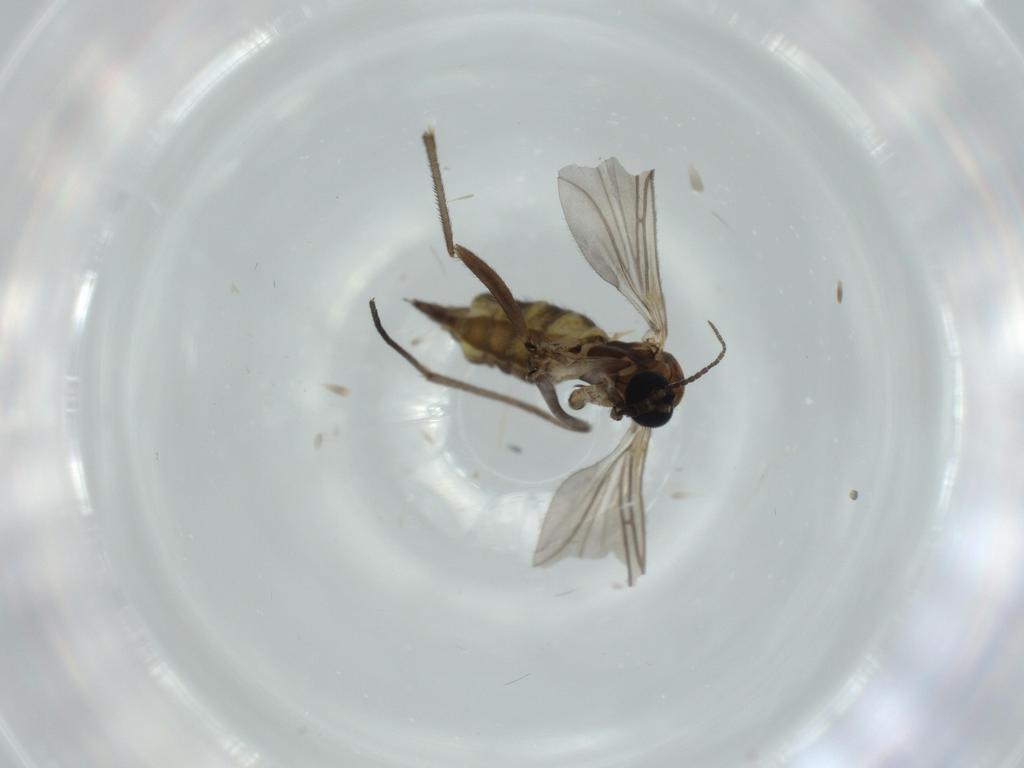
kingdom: Animalia
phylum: Arthropoda
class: Insecta
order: Diptera
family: Sciaridae
